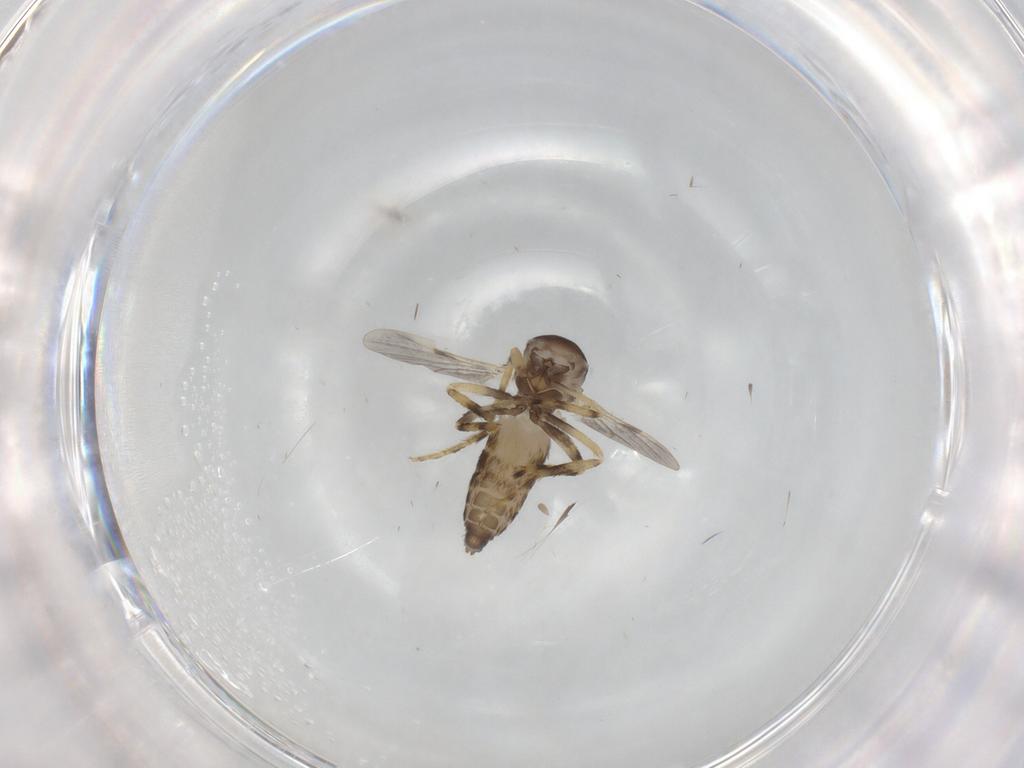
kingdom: Animalia
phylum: Arthropoda
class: Insecta
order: Diptera
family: Ceratopogonidae
